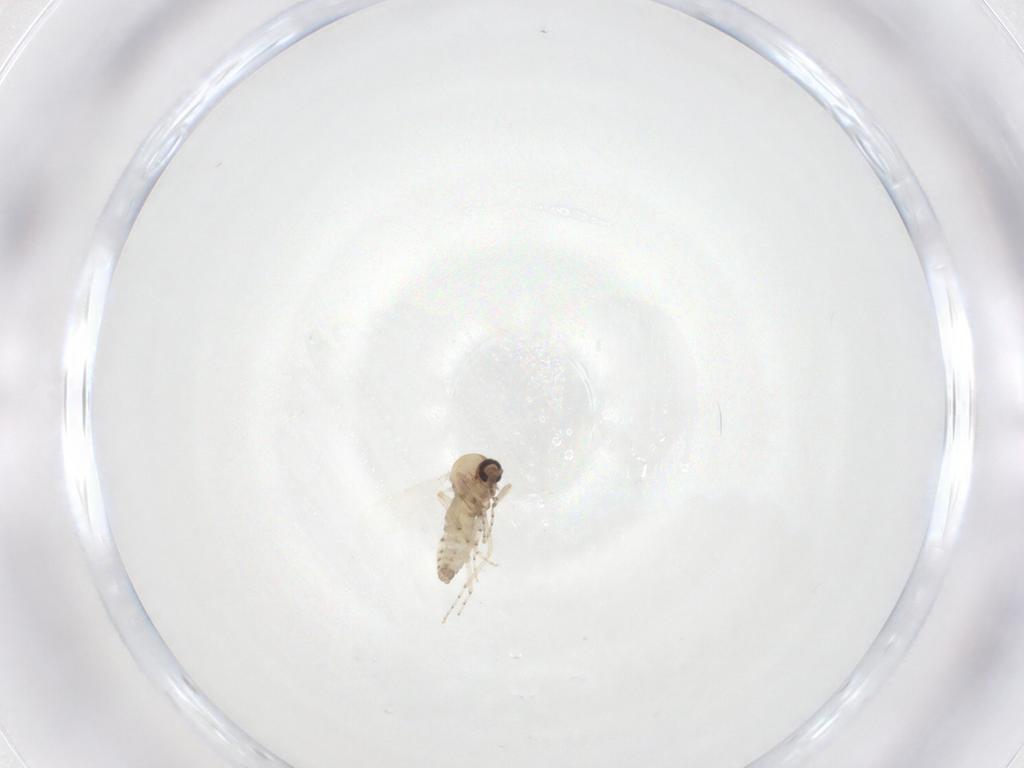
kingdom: Animalia
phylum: Arthropoda
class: Insecta
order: Diptera
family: Ceratopogonidae
